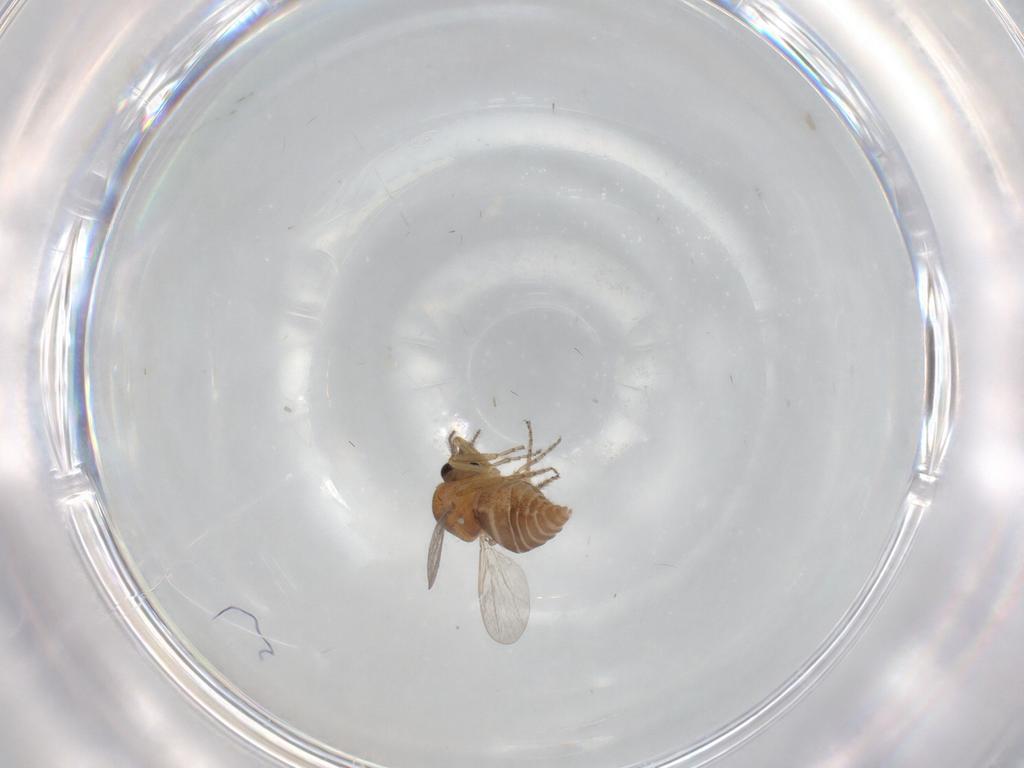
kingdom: Animalia
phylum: Arthropoda
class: Insecta
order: Diptera
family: Ceratopogonidae
